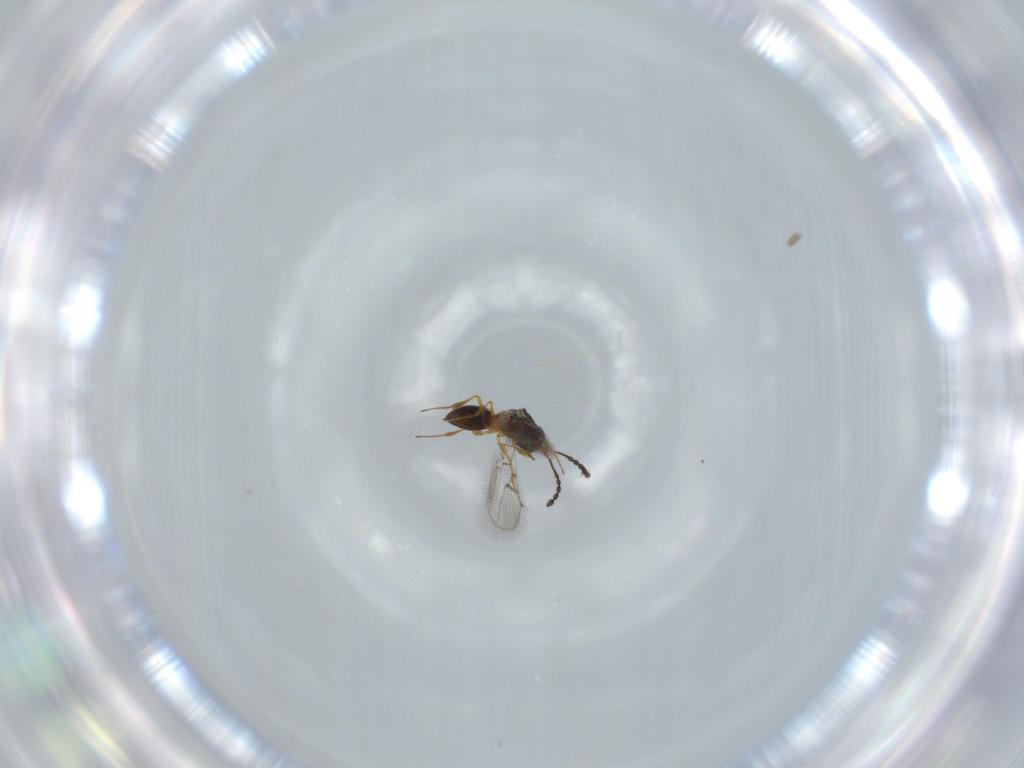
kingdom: Animalia
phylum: Arthropoda
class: Insecta
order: Hymenoptera
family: Figitidae
